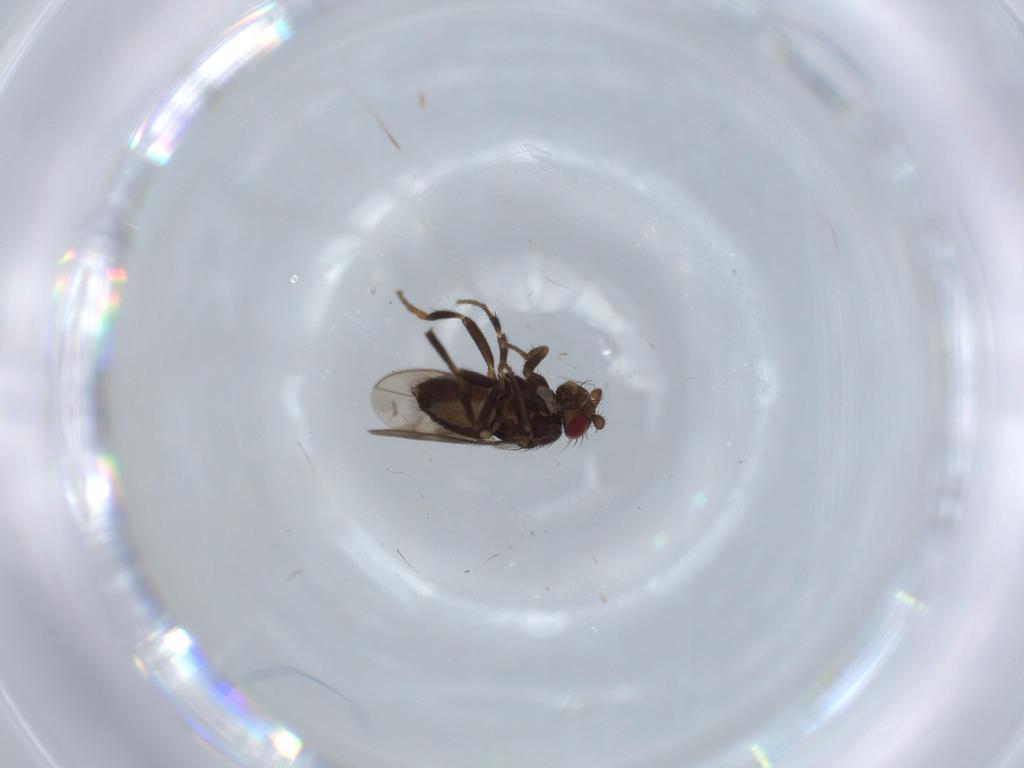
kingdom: Animalia
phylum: Arthropoda
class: Insecta
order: Diptera
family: Sphaeroceridae
